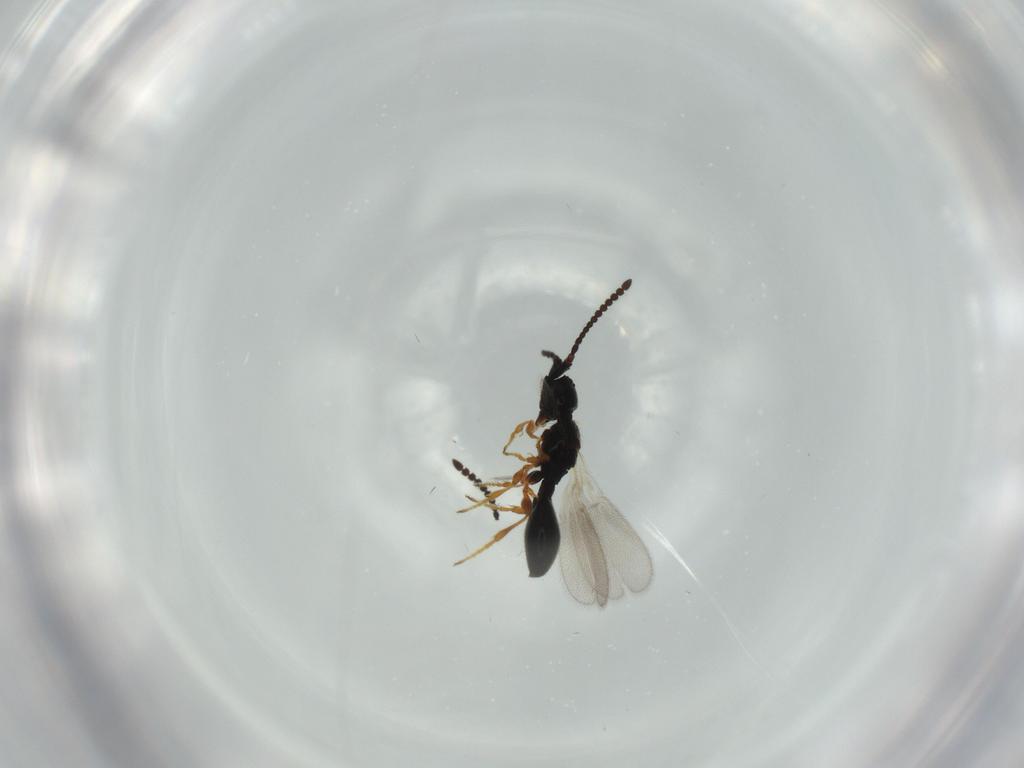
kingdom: Animalia
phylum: Arthropoda
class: Insecta
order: Hymenoptera
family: Diapriidae
